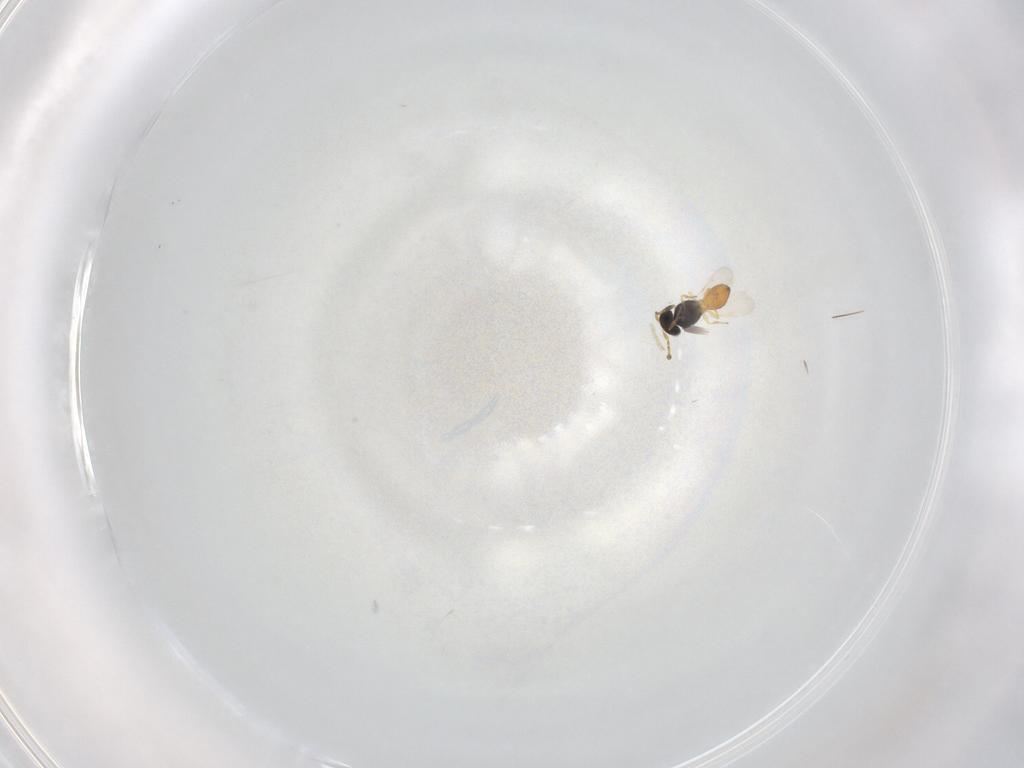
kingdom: Animalia
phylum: Arthropoda
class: Insecta
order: Hymenoptera
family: Scelionidae
